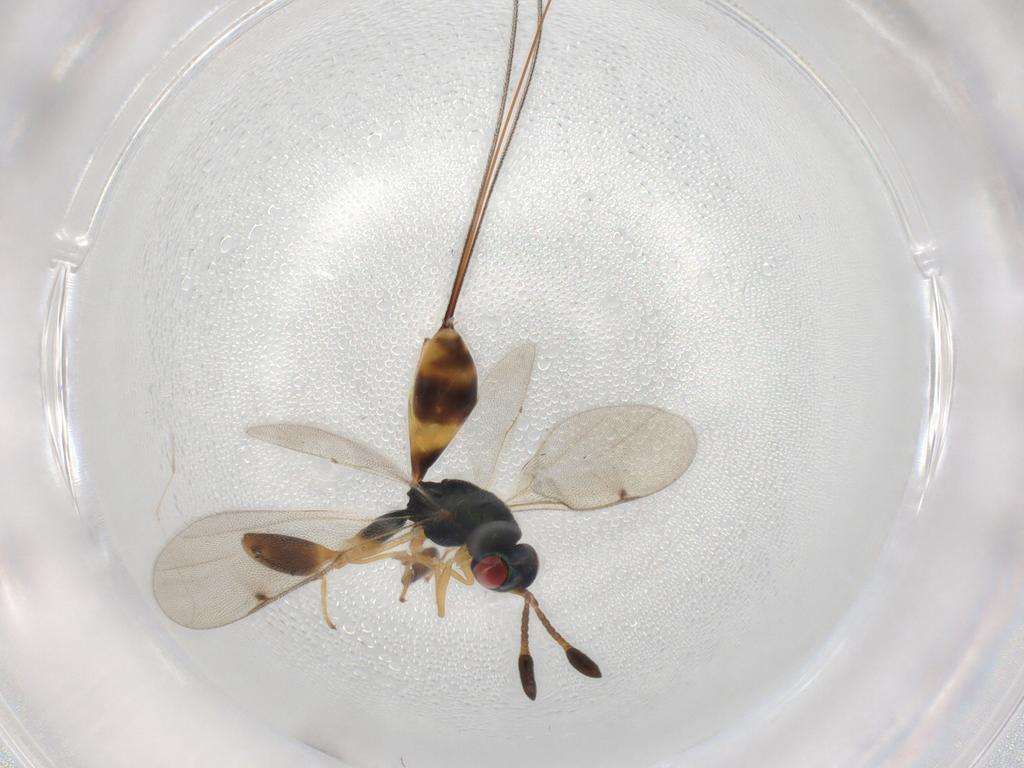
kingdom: Animalia
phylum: Arthropoda
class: Insecta
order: Hymenoptera
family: Torymidae
